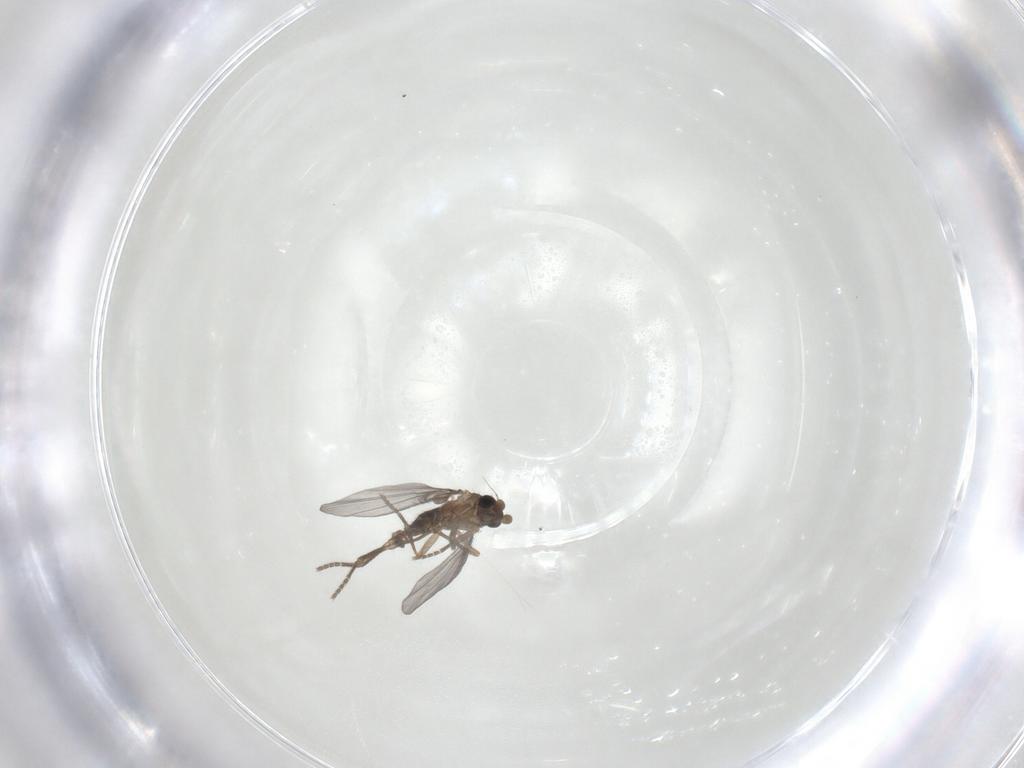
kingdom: Animalia
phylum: Arthropoda
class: Insecta
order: Diptera
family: Phoridae
